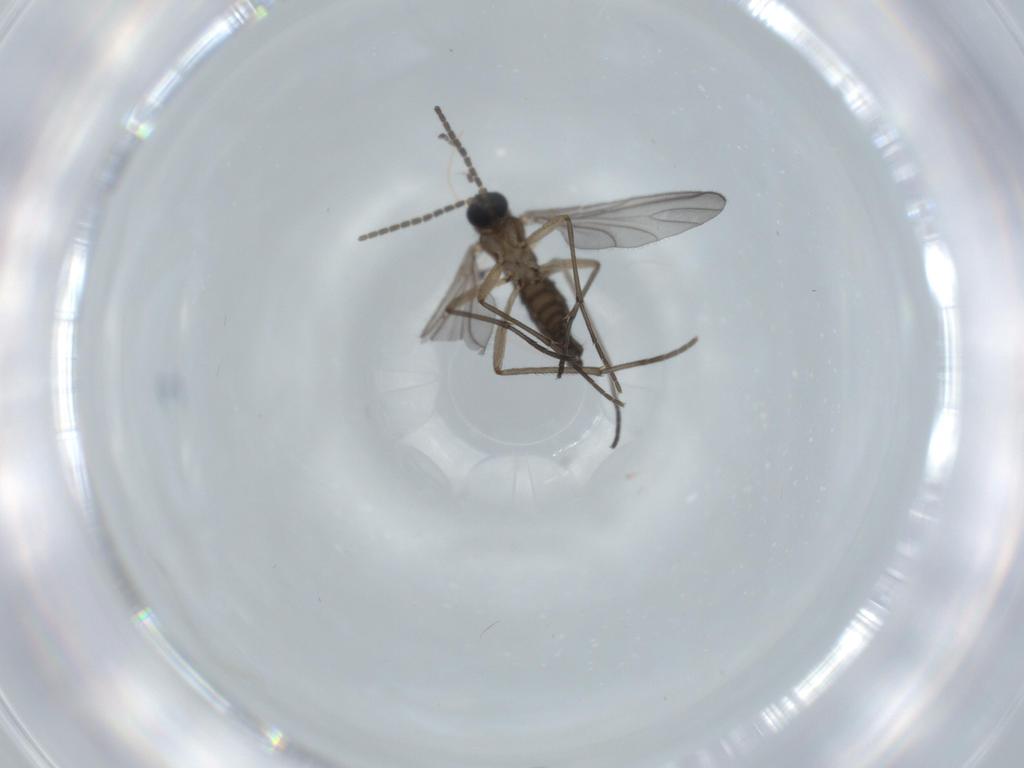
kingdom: Animalia
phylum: Arthropoda
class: Insecta
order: Diptera
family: Sciaridae
